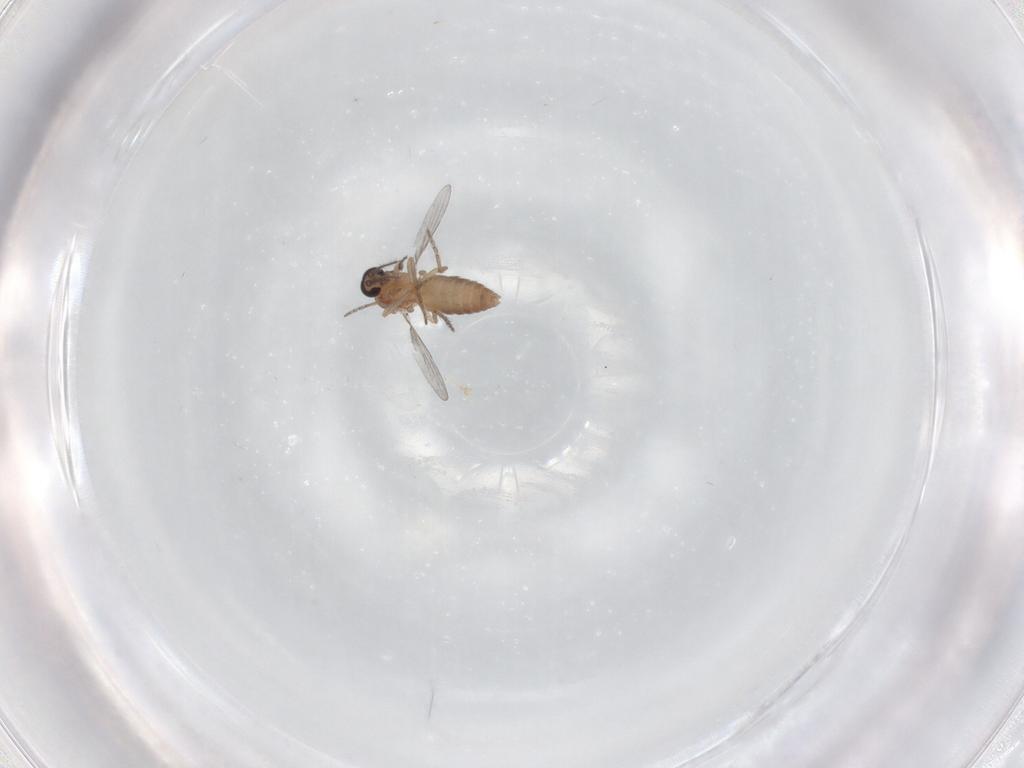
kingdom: Animalia
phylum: Arthropoda
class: Insecta
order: Diptera
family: Ceratopogonidae
